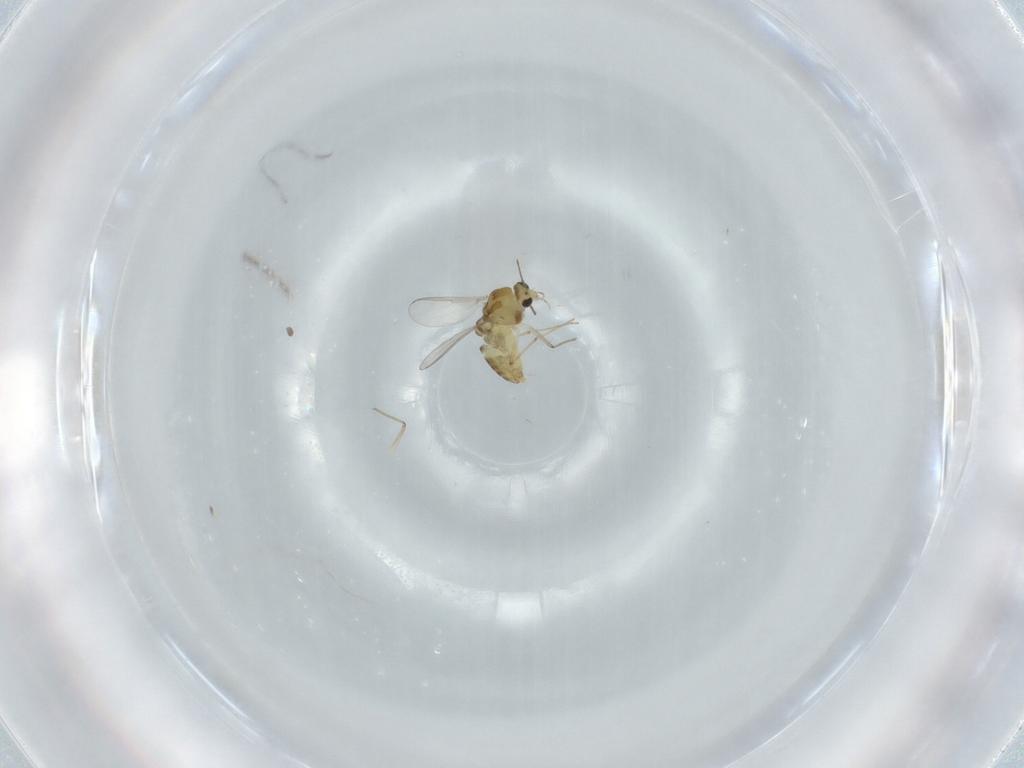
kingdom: Animalia
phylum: Arthropoda
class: Insecta
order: Diptera
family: Chironomidae
